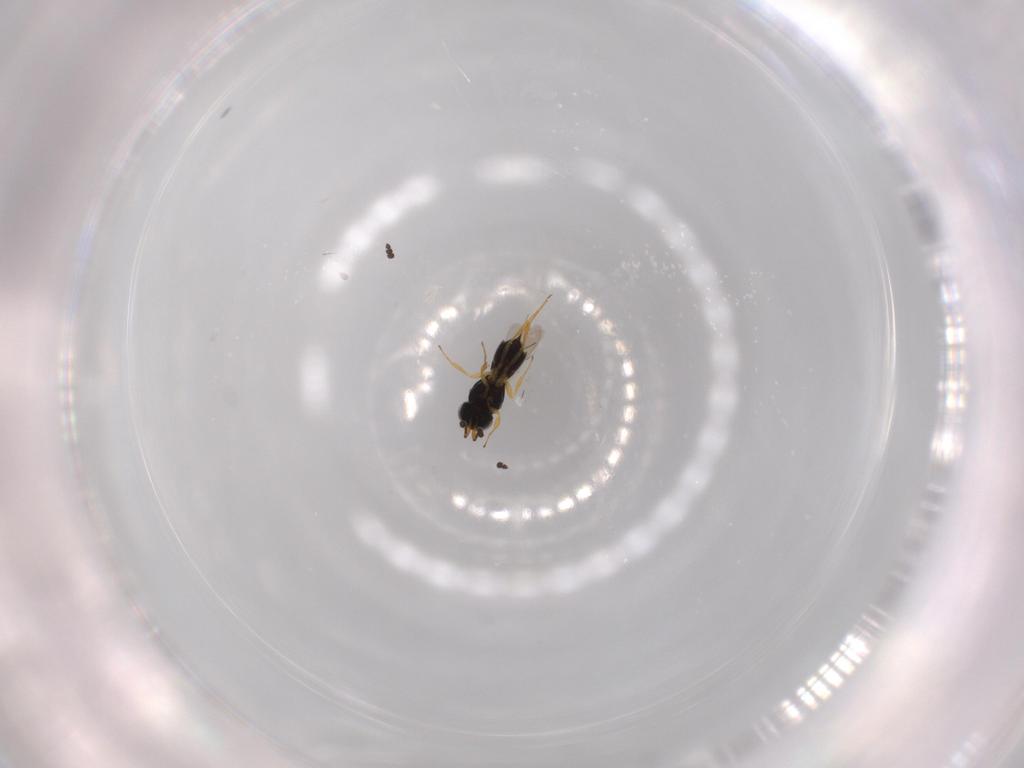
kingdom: Animalia
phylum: Arthropoda
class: Insecta
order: Hymenoptera
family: Scelionidae
